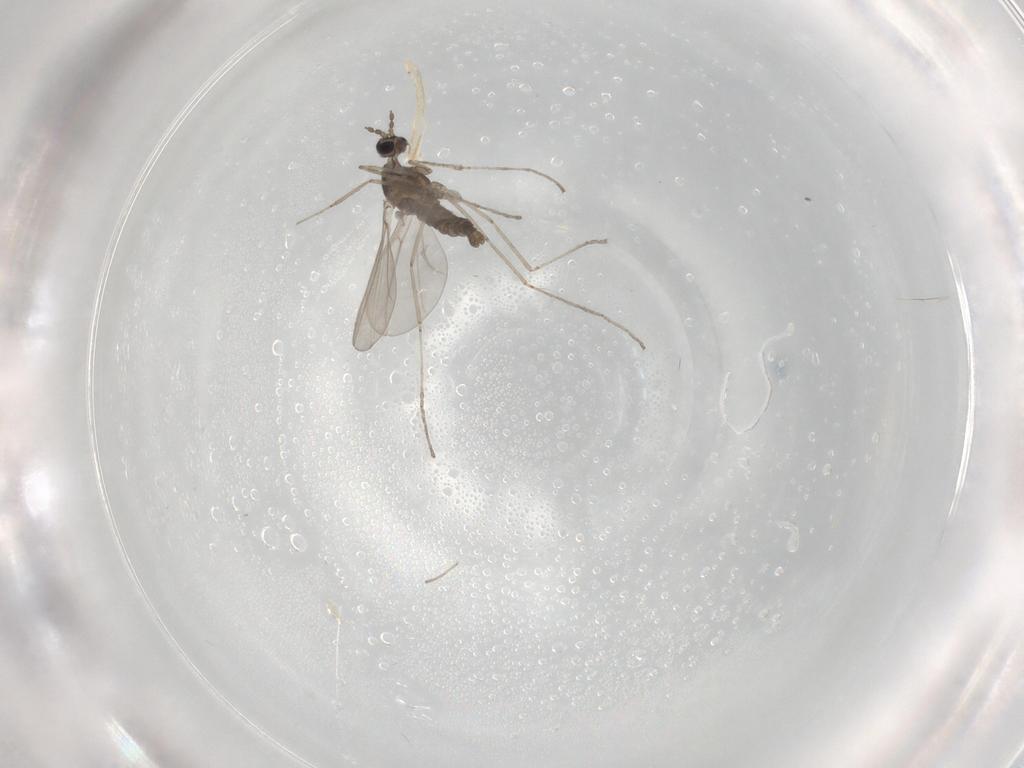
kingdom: Animalia
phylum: Arthropoda
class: Insecta
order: Diptera
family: Cecidomyiidae
